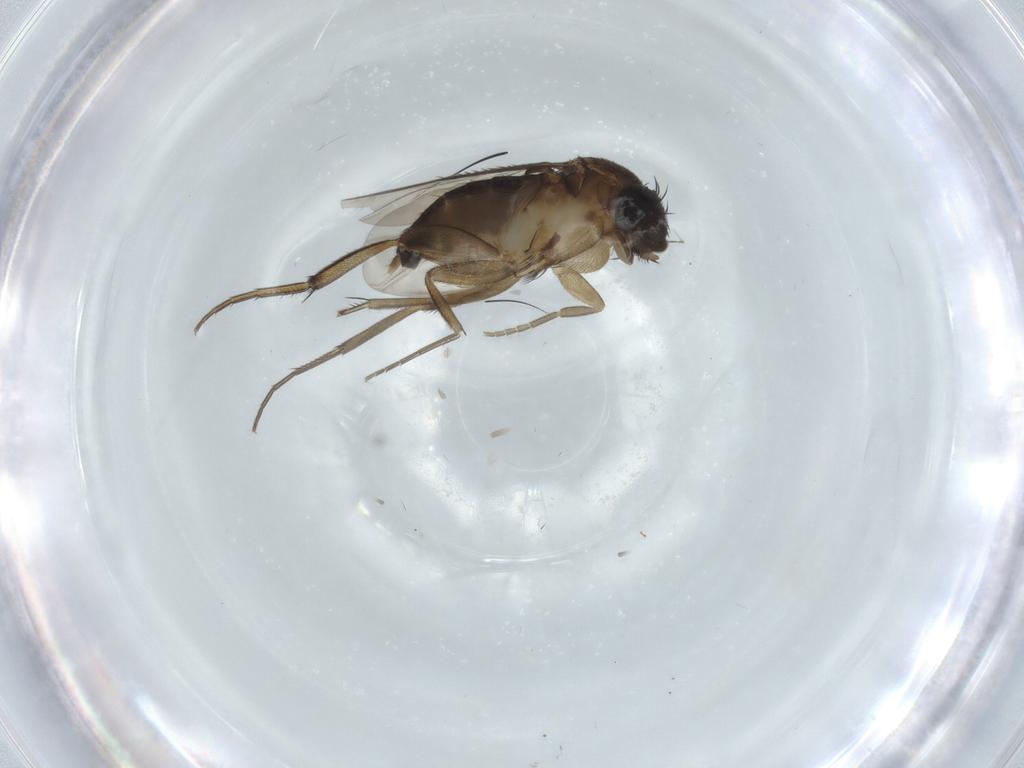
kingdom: Animalia
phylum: Arthropoda
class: Insecta
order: Diptera
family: Phoridae
